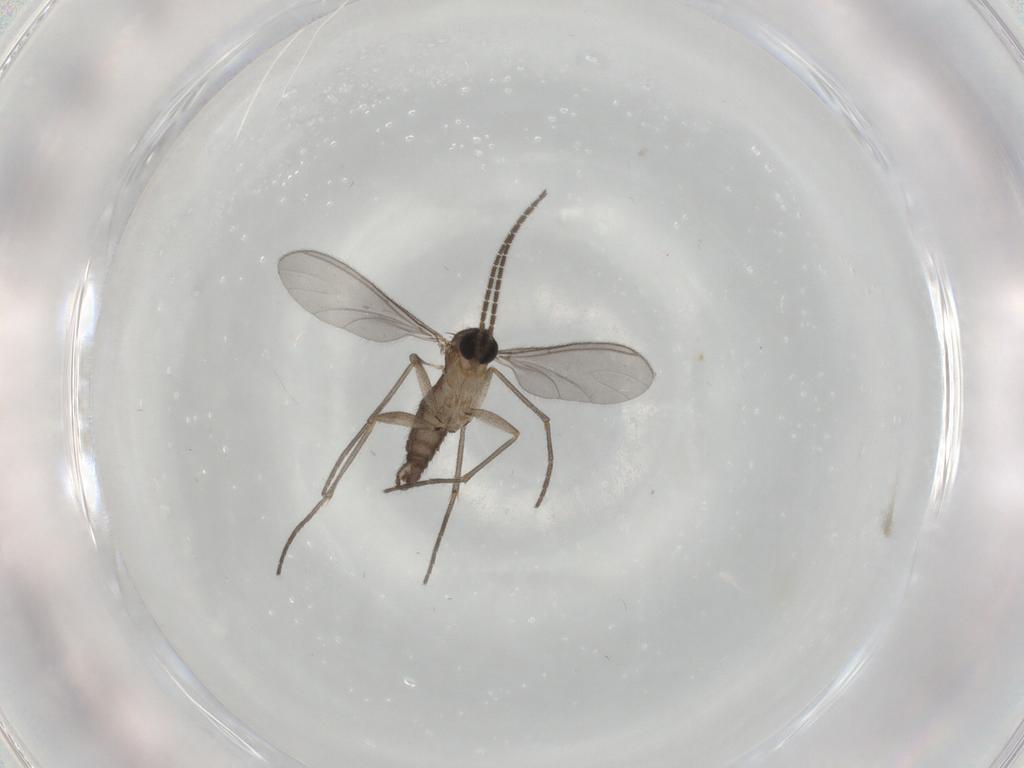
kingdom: Animalia
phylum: Arthropoda
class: Insecta
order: Diptera
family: Sciaridae
